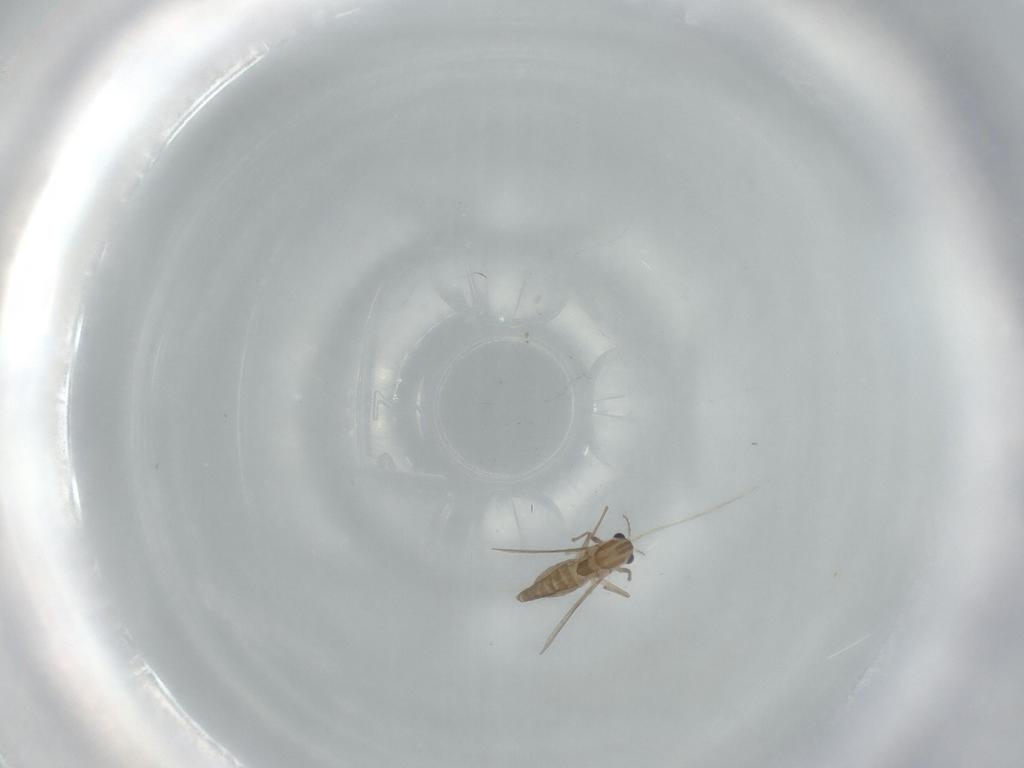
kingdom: Animalia
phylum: Arthropoda
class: Insecta
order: Diptera
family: Chironomidae
